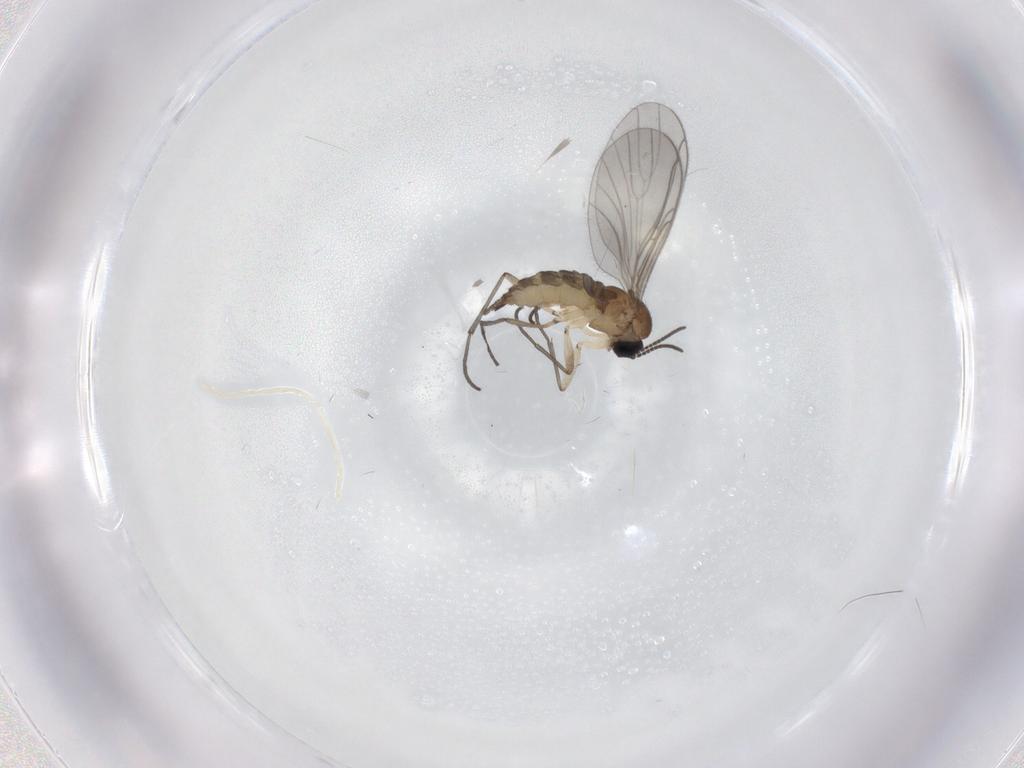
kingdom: Animalia
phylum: Arthropoda
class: Insecta
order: Diptera
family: Sciaridae
